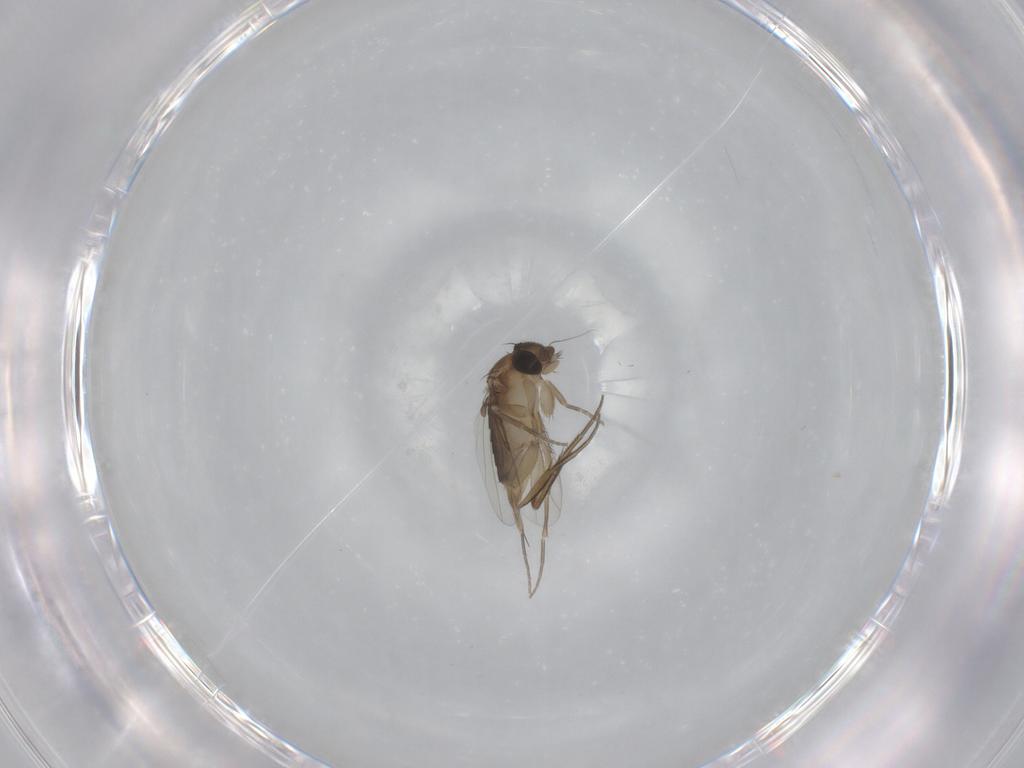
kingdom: Animalia
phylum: Arthropoda
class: Insecta
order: Diptera
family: Phoridae
